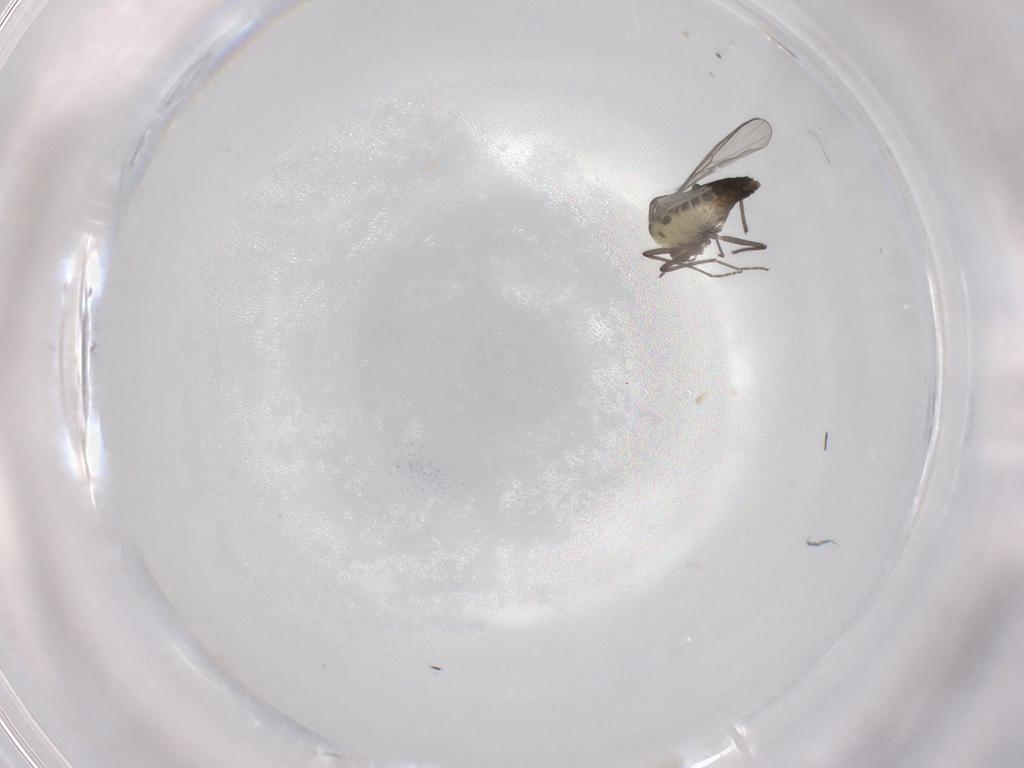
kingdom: Animalia
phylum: Arthropoda
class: Insecta
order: Diptera
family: Chironomidae
